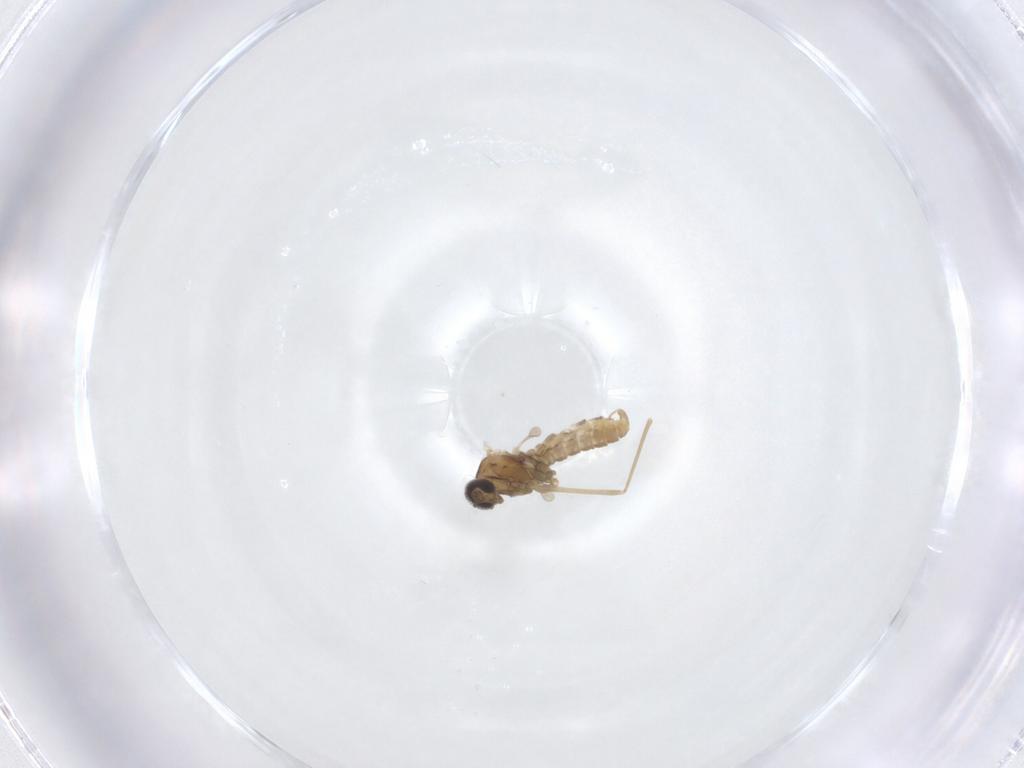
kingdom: Animalia
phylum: Arthropoda
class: Insecta
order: Diptera
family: Cecidomyiidae
